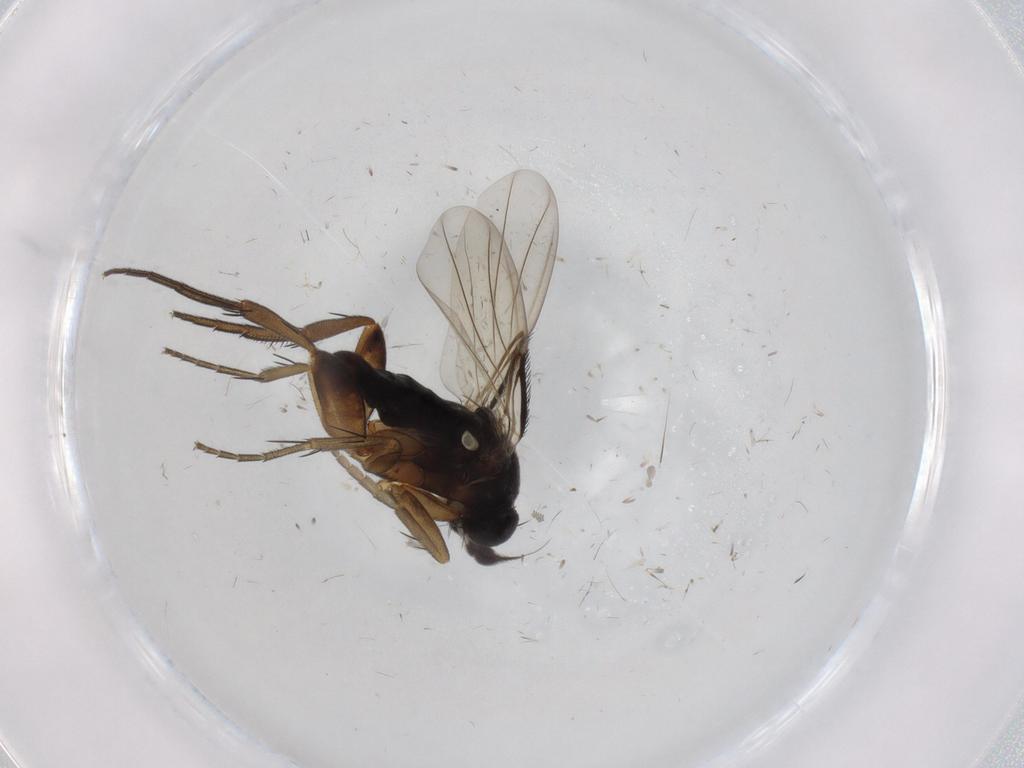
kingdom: Animalia
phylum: Arthropoda
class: Insecta
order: Diptera
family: Phoridae
